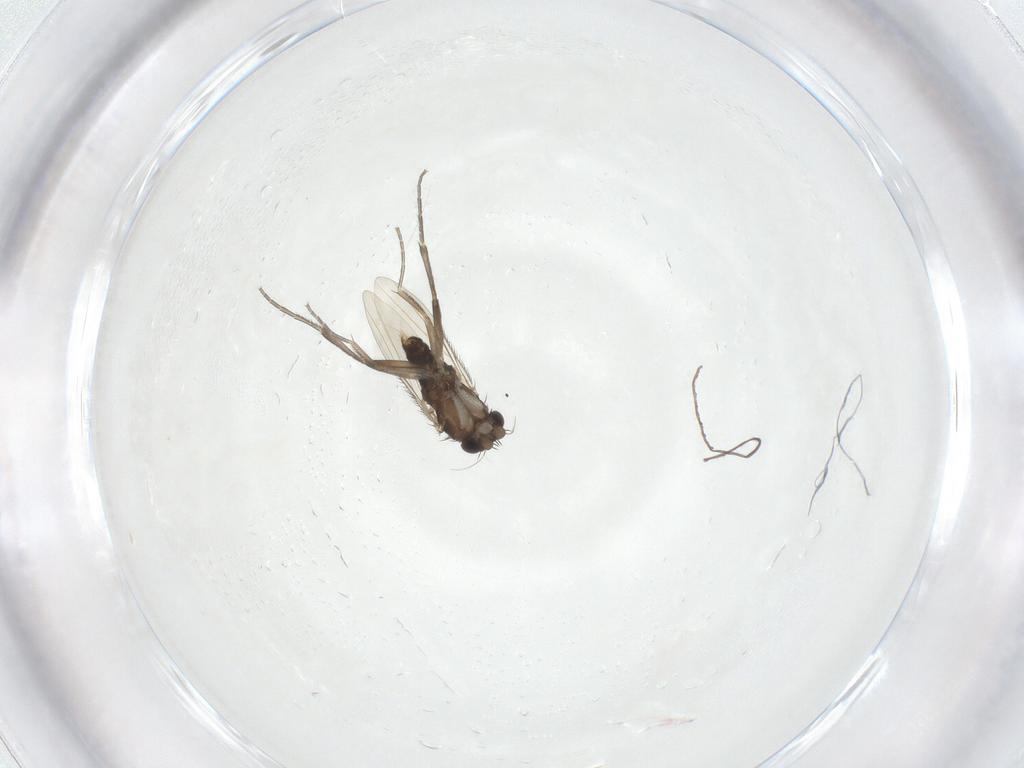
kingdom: Animalia
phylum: Arthropoda
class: Insecta
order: Diptera
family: Phoridae
